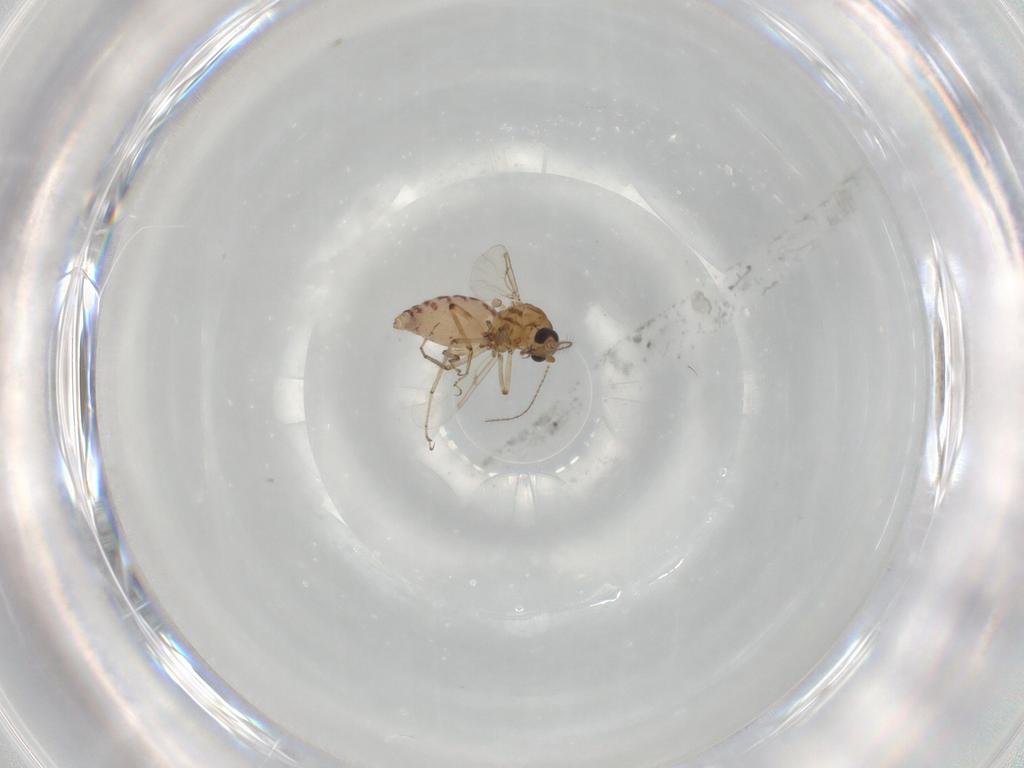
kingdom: Animalia
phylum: Arthropoda
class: Insecta
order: Diptera
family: Ceratopogonidae
